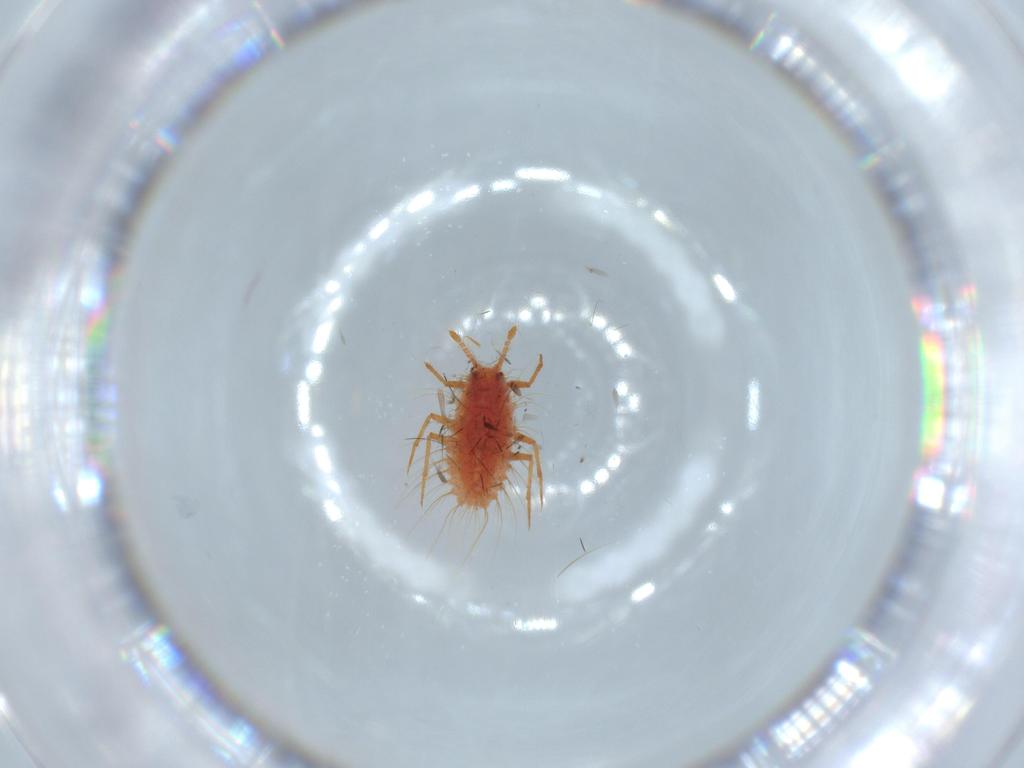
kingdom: Animalia
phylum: Arthropoda
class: Insecta
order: Hemiptera
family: Monophlebidae
